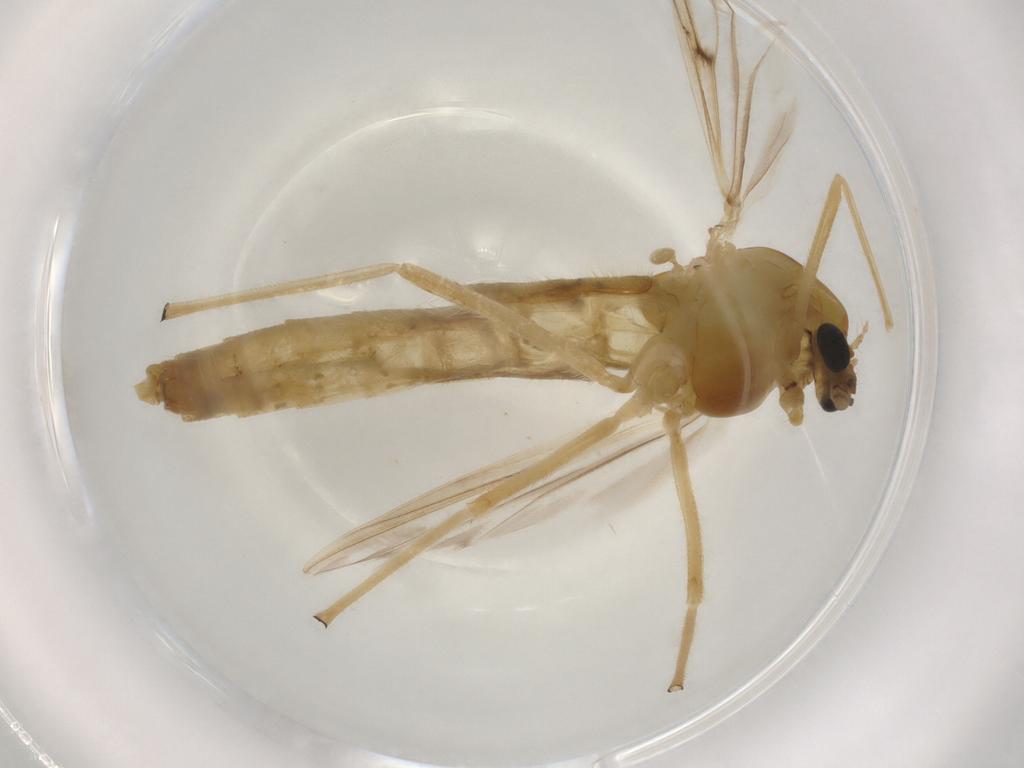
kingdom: Animalia
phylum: Arthropoda
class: Insecta
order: Diptera
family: Ceratopogonidae
